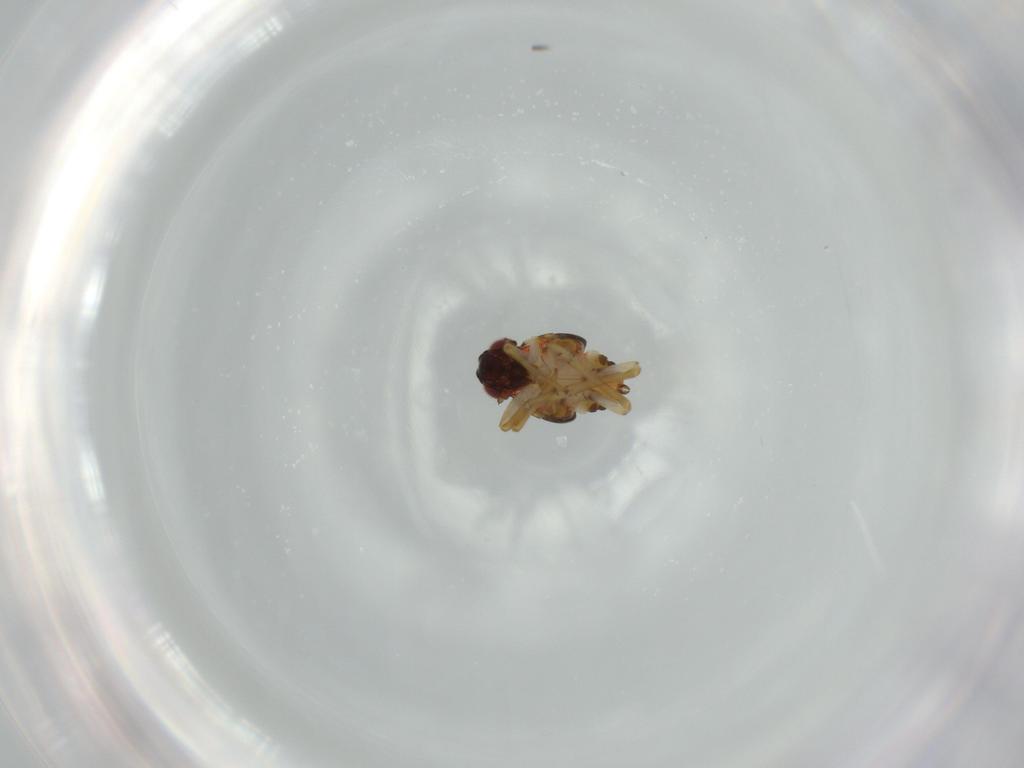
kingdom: Animalia
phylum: Arthropoda
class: Insecta
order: Hemiptera
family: Issidae
